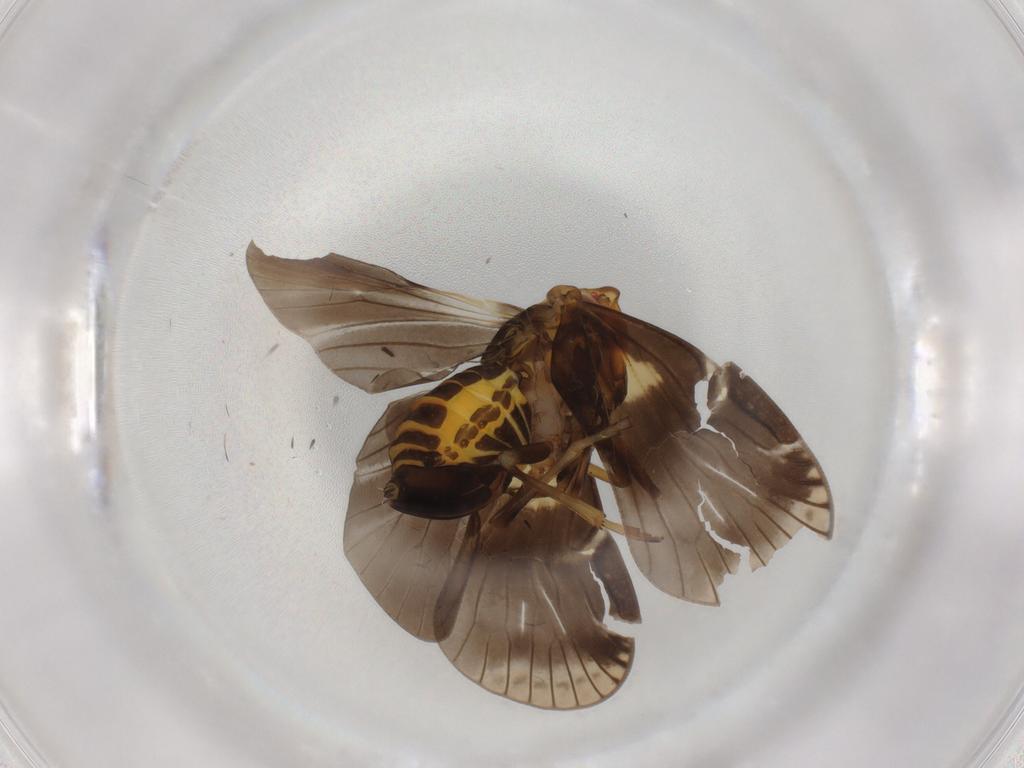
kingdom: Animalia
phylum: Arthropoda
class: Insecta
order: Hemiptera
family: Cixiidae
